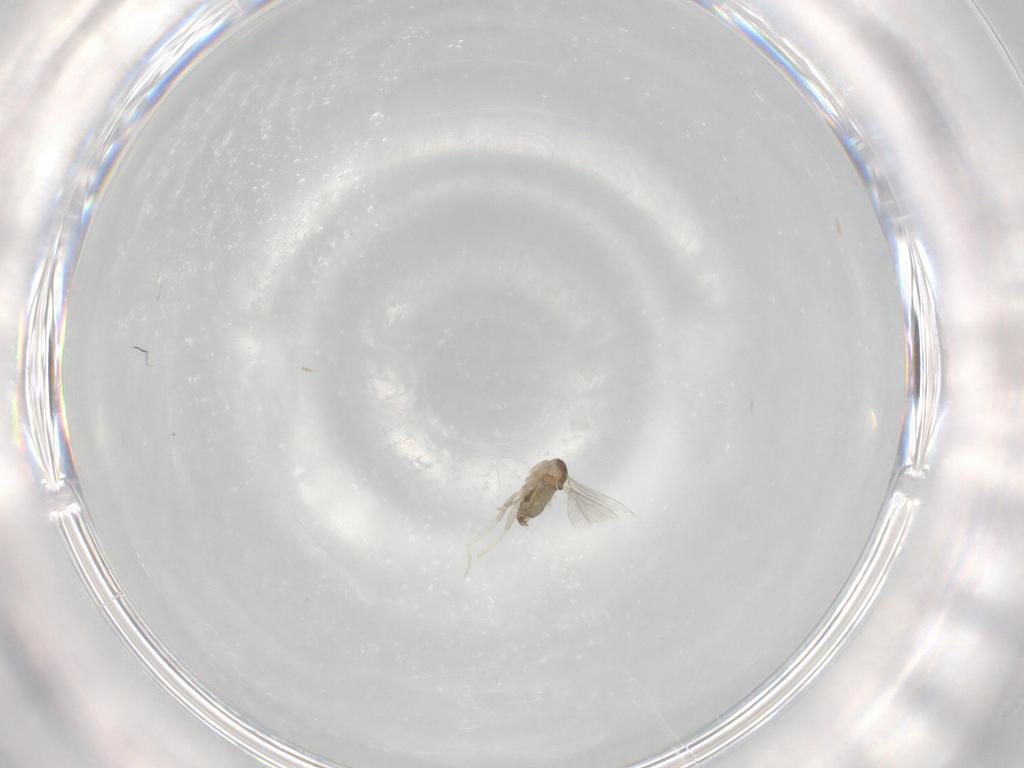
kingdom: Animalia
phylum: Arthropoda
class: Insecta
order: Diptera
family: Cecidomyiidae
